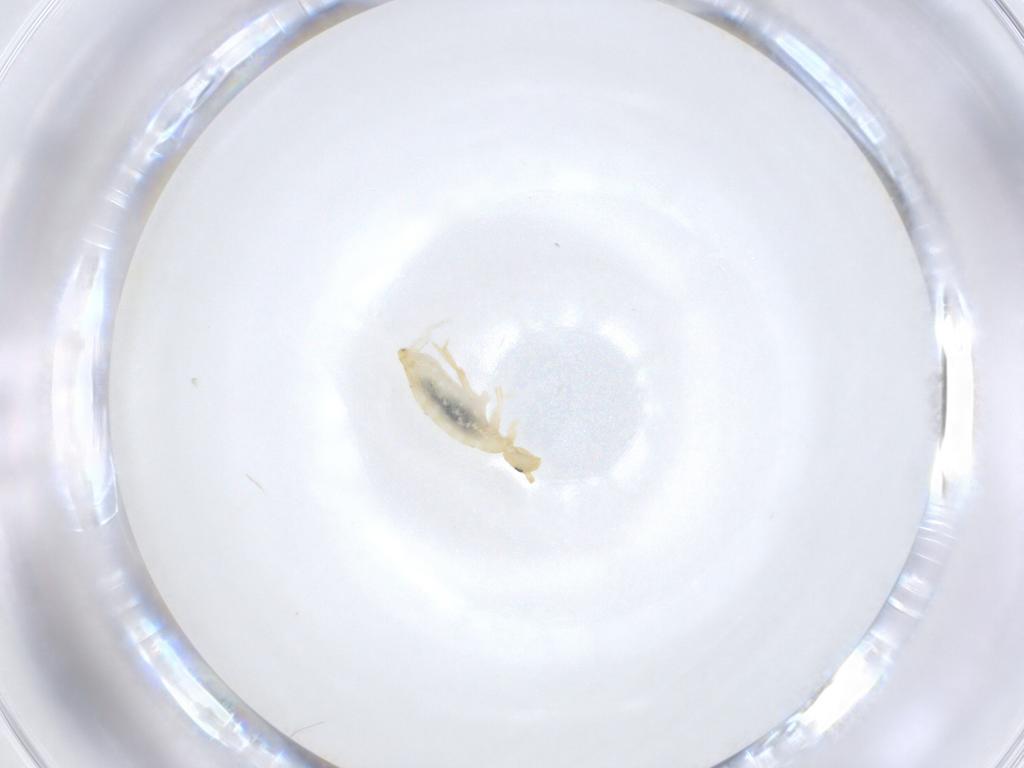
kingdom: Animalia
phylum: Arthropoda
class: Collembola
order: Entomobryomorpha
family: Entomobryidae
